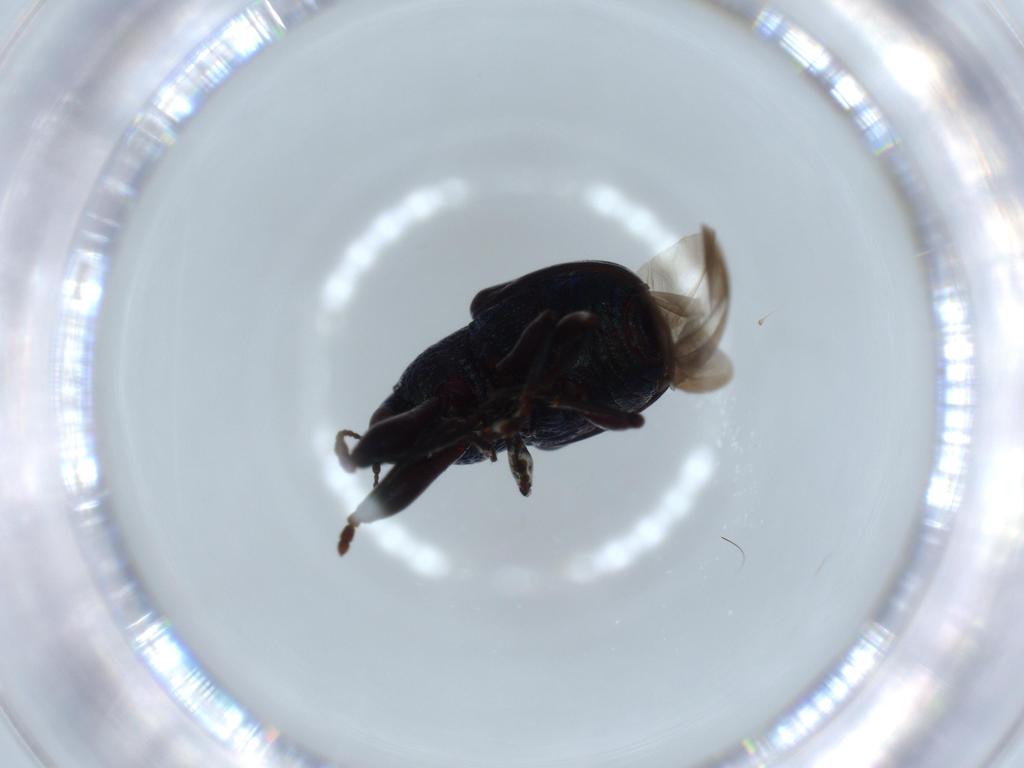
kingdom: Animalia
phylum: Arthropoda
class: Insecta
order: Coleoptera
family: Attelabidae
